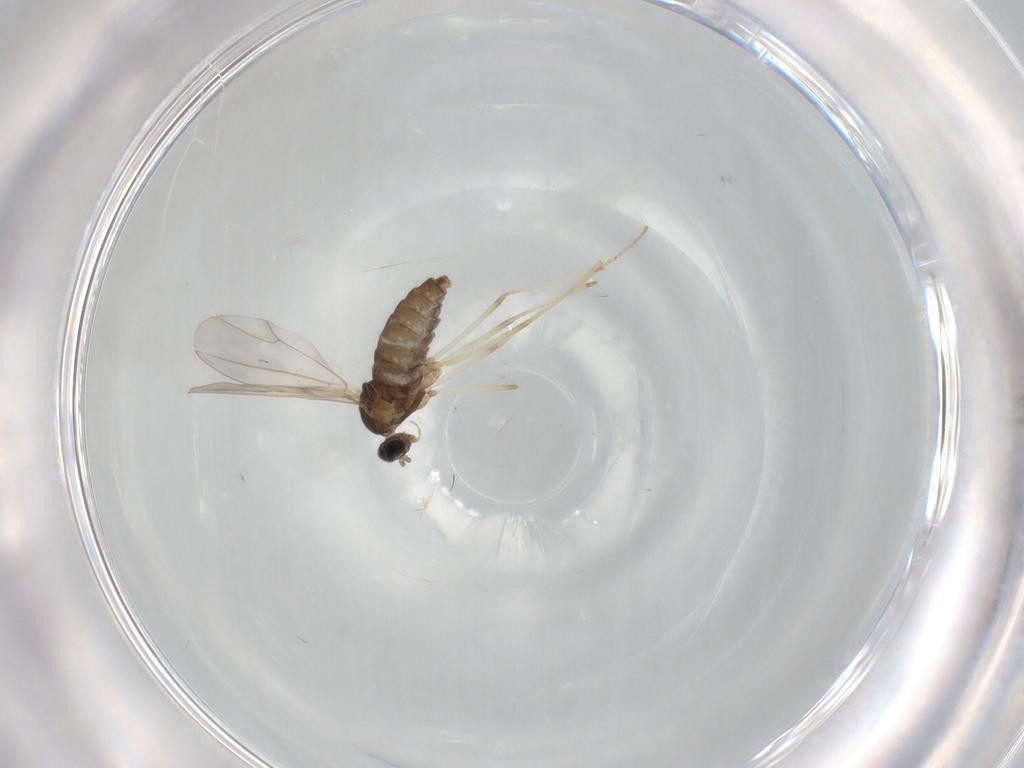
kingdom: Animalia
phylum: Arthropoda
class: Insecta
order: Diptera
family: Cecidomyiidae
